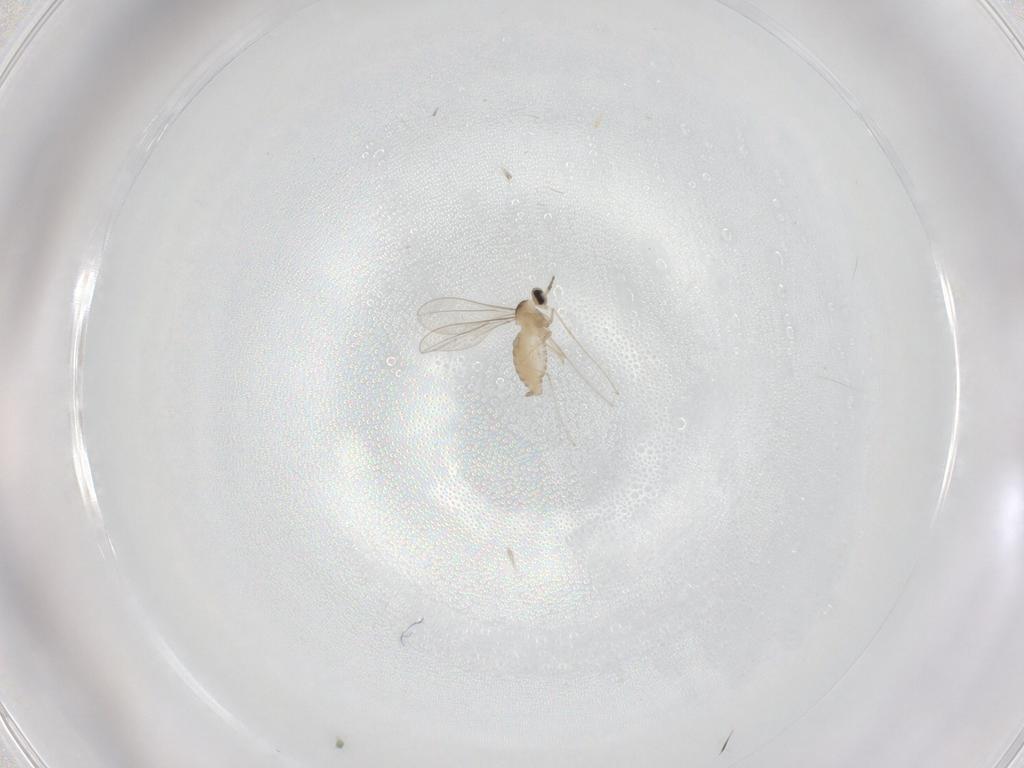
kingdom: Animalia
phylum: Arthropoda
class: Insecta
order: Diptera
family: Cecidomyiidae
